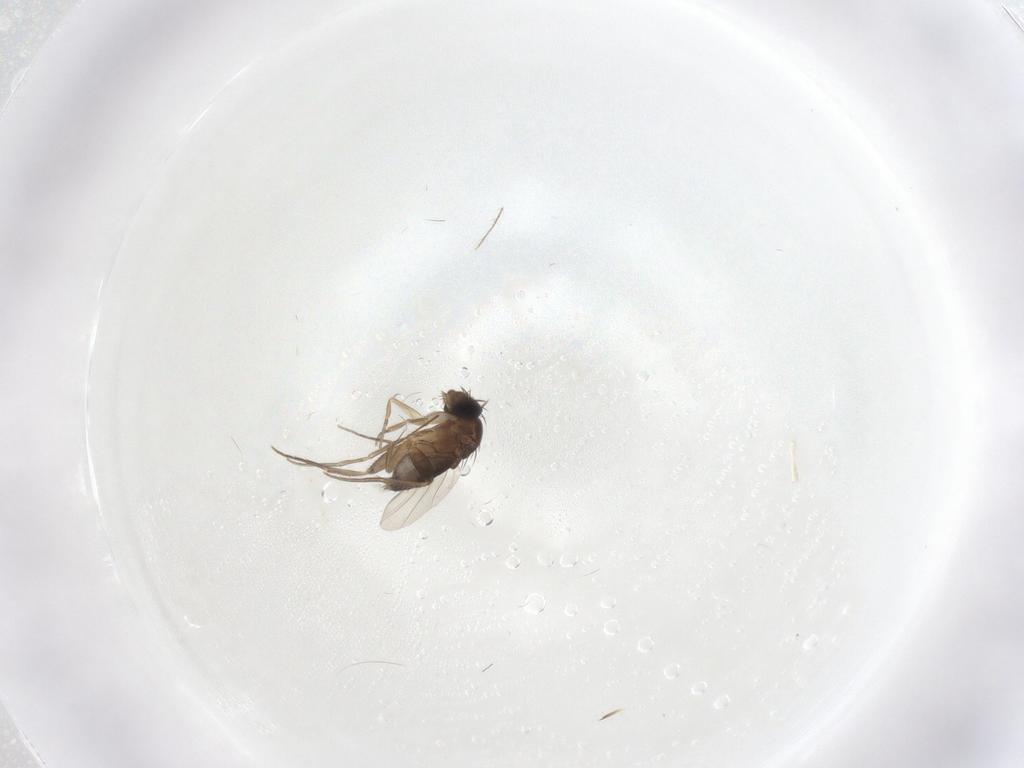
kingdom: Animalia
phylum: Arthropoda
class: Insecta
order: Diptera
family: Phoridae
